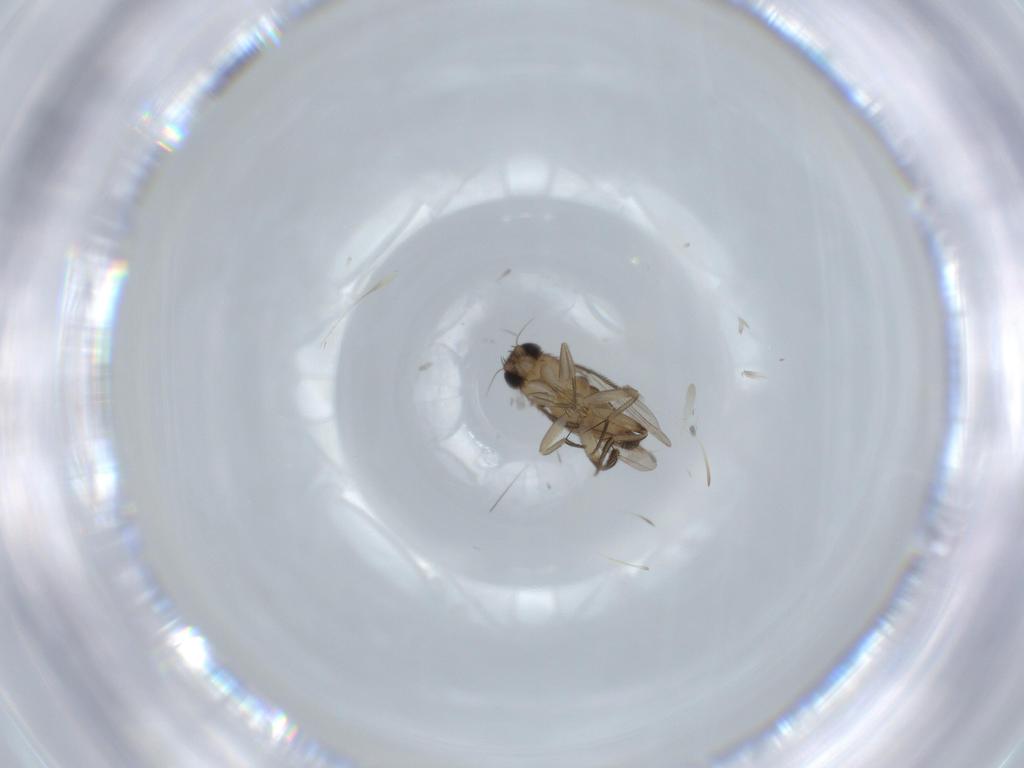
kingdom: Animalia
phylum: Arthropoda
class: Insecta
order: Diptera
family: Phoridae
